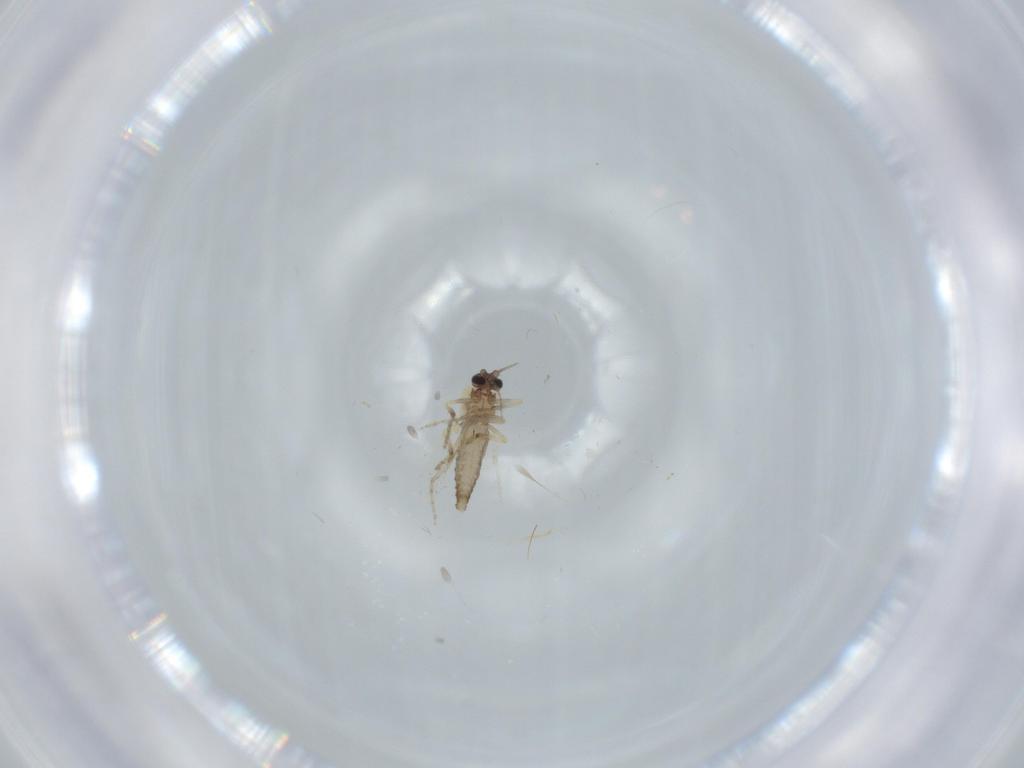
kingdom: Animalia
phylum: Arthropoda
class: Insecta
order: Diptera
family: Ceratopogonidae
